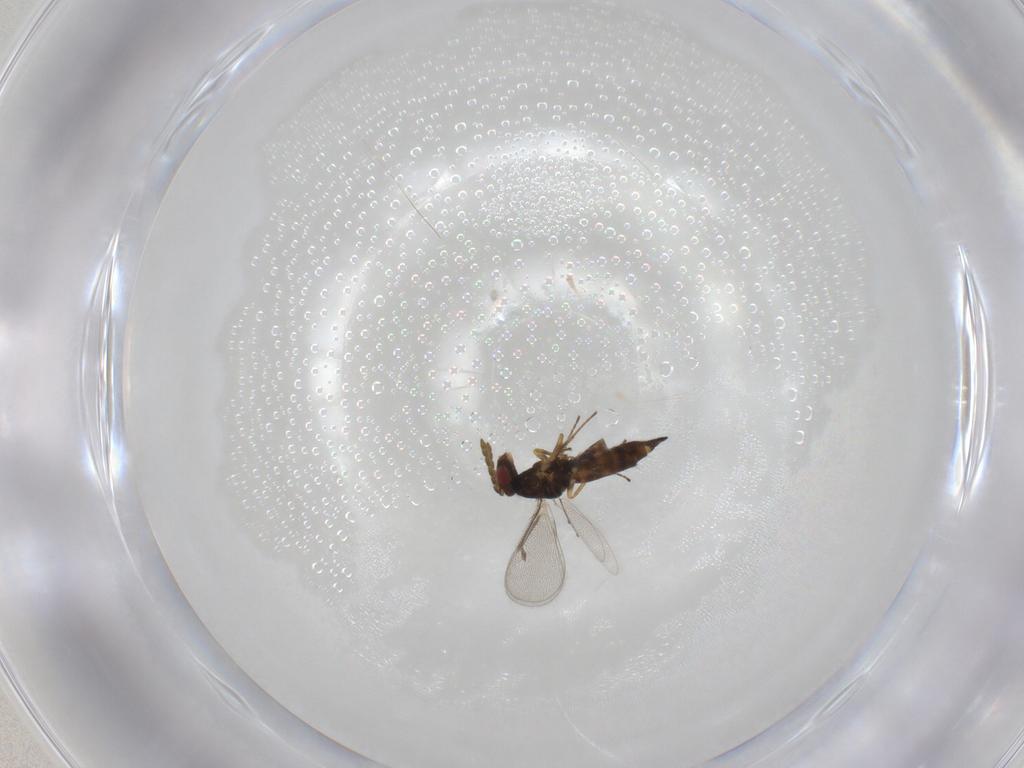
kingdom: Animalia
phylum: Arthropoda
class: Insecta
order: Hymenoptera
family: Eulophidae
